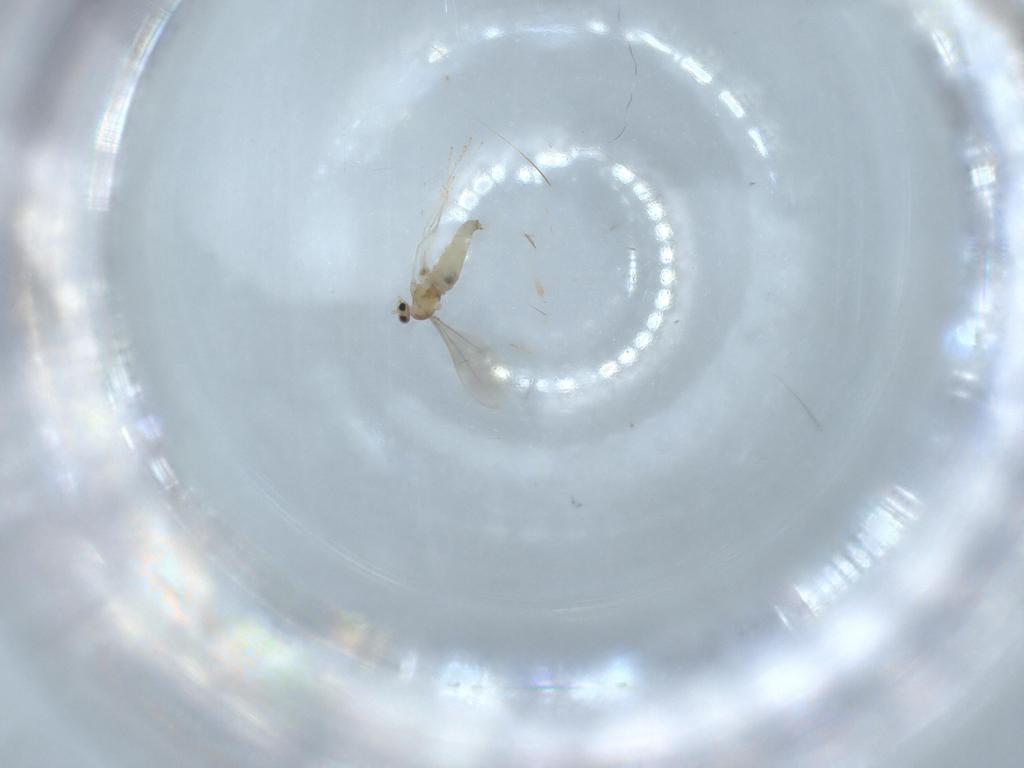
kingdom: Animalia
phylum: Arthropoda
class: Insecta
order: Diptera
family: Cecidomyiidae
